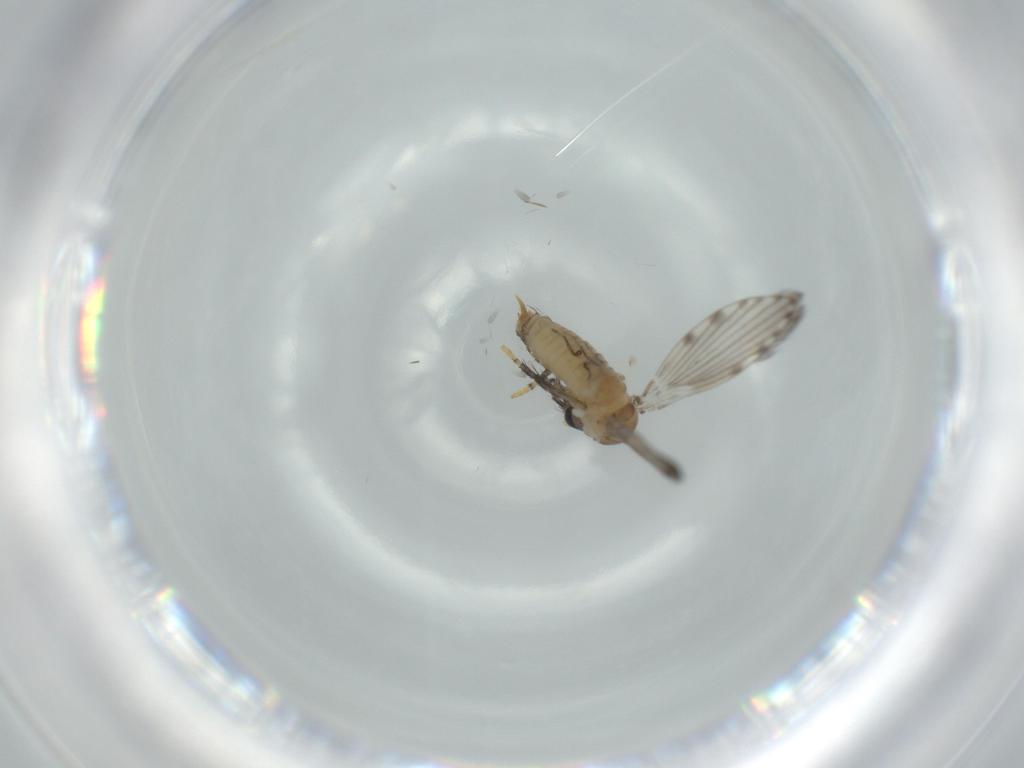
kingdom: Animalia
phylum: Arthropoda
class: Insecta
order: Diptera
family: Psychodidae
